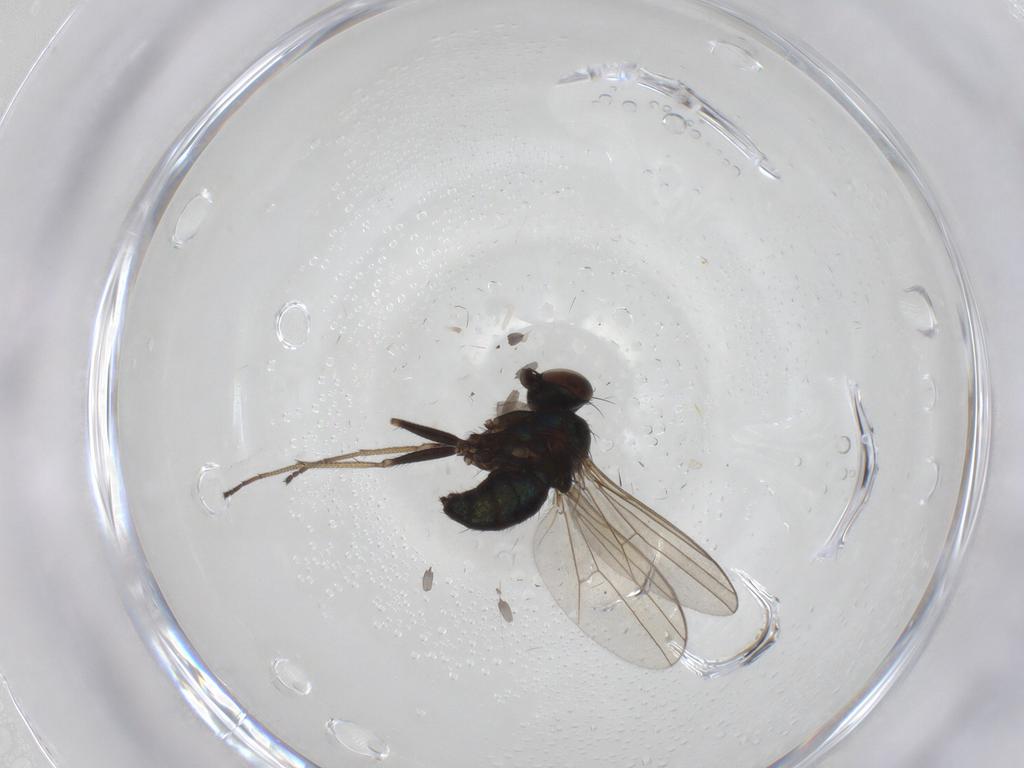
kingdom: Animalia
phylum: Arthropoda
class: Insecta
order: Diptera
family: Dolichopodidae
